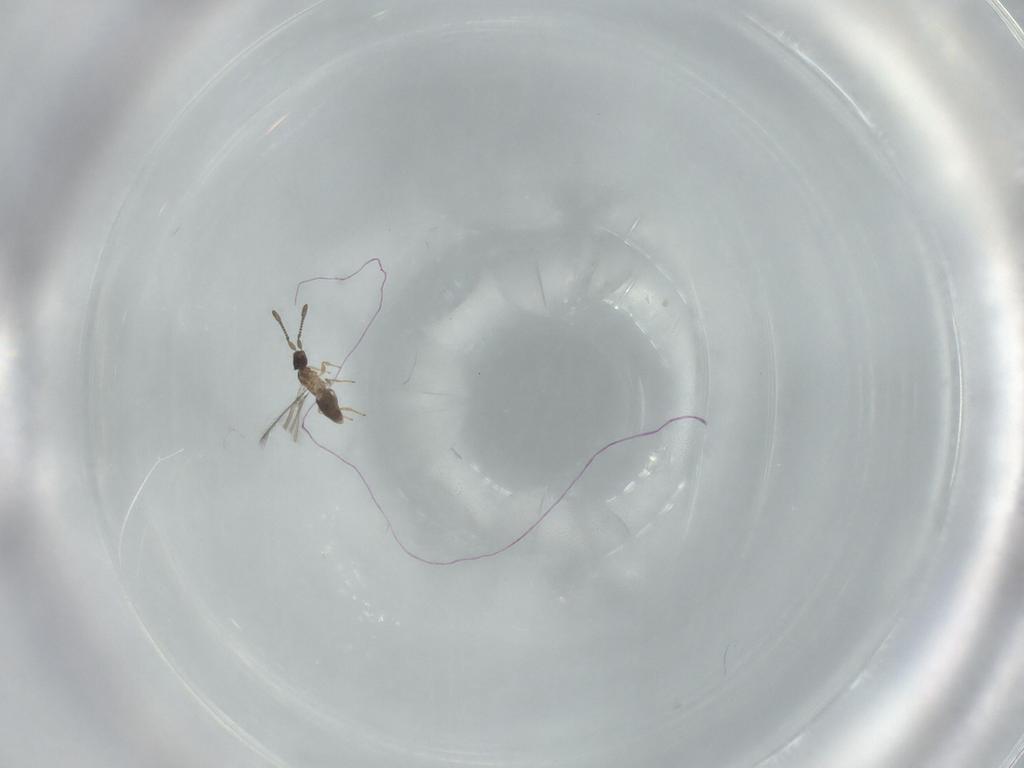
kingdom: Animalia
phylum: Arthropoda
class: Insecta
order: Hymenoptera
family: Mymaridae
